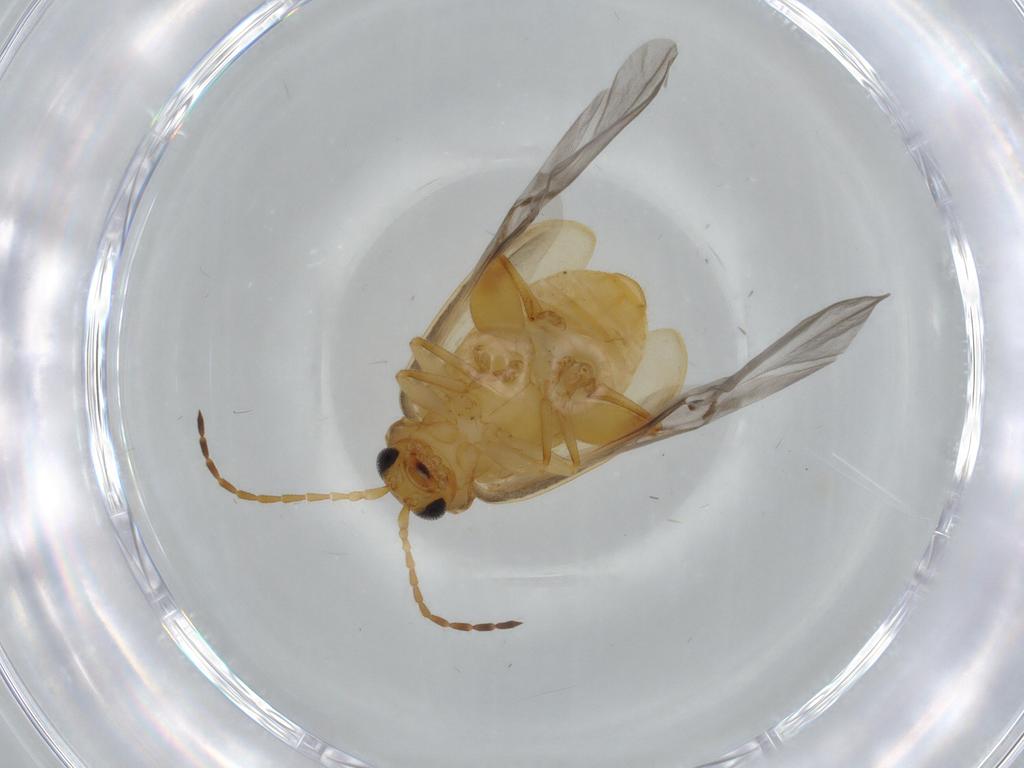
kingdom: Animalia
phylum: Arthropoda
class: Insecta
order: Coleoptera
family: Chrysomelidae
